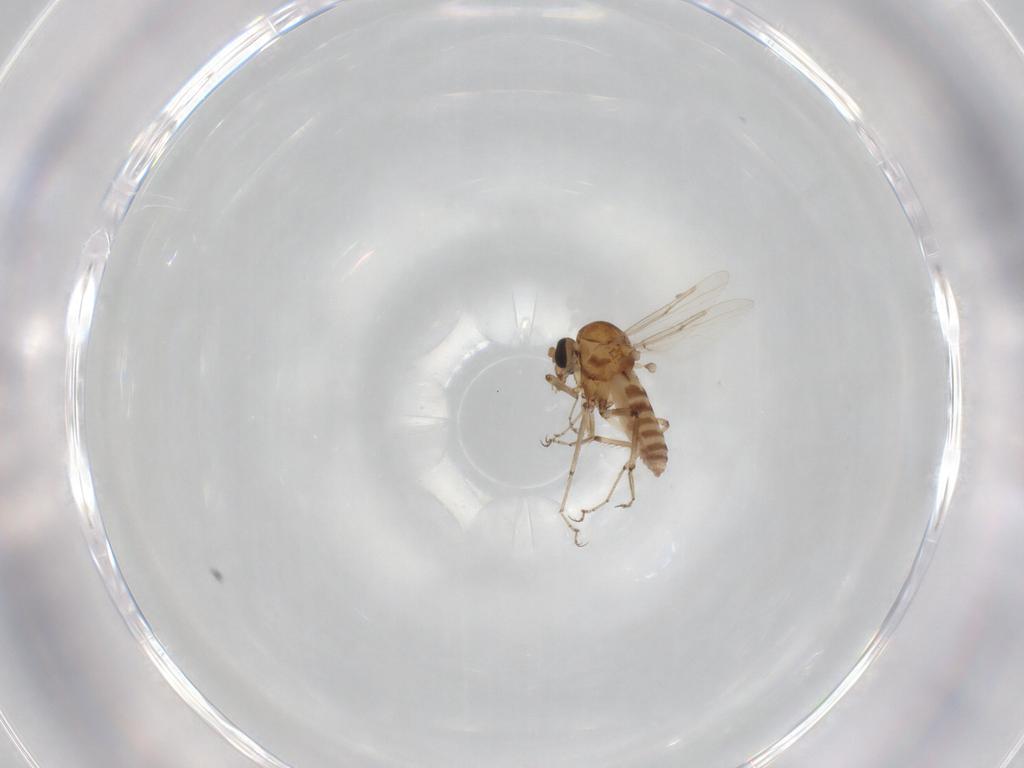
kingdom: Animalia
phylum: Arthropoda
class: Insecta
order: Diptera
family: Ceratopogonidae
